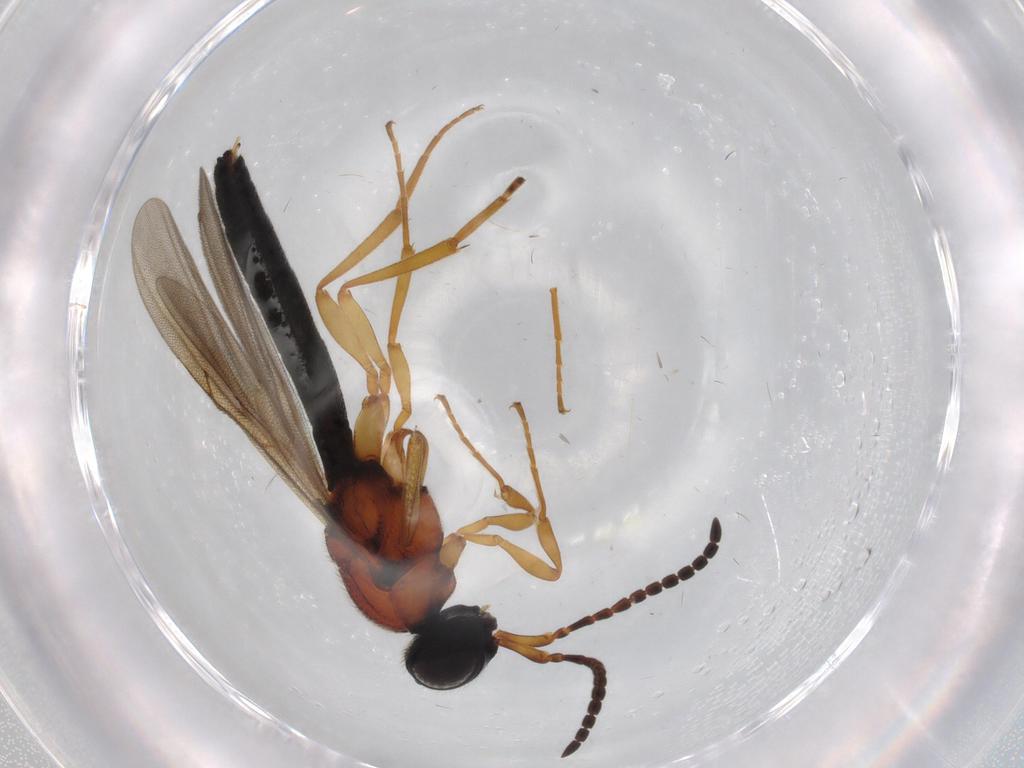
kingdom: Animalia
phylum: Arthropoda
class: Insecta
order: Hymenoptera
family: Scelionidae
